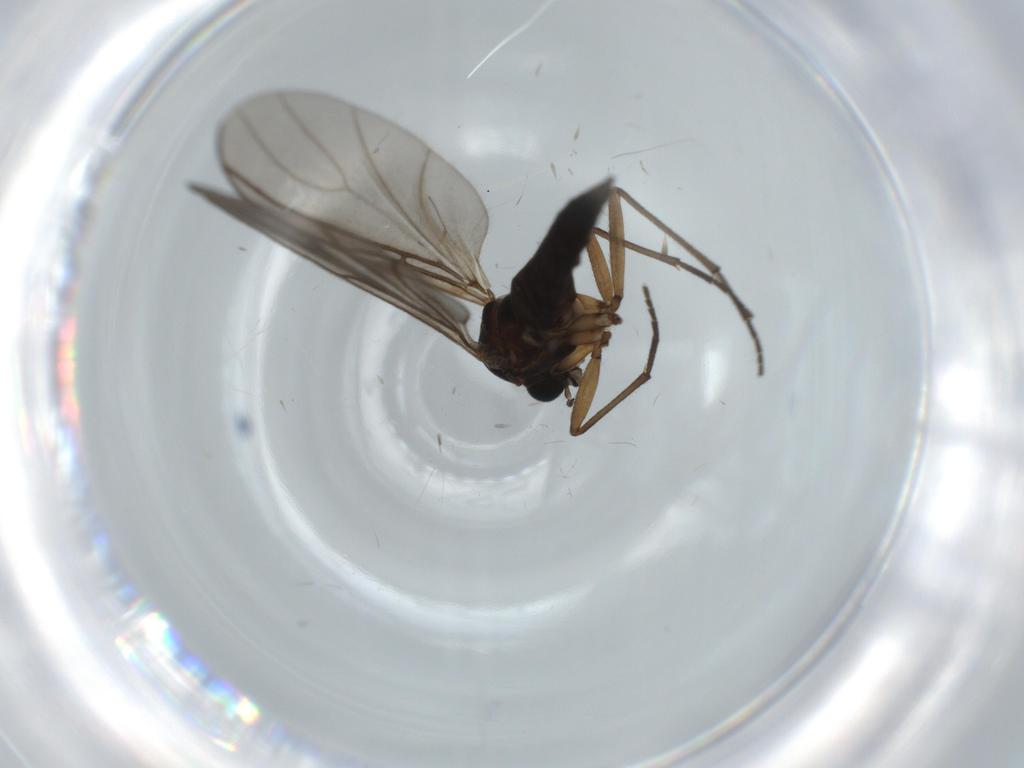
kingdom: Animalia
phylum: Arthropoda
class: Insecta
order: Diptera
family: Sciaridae
